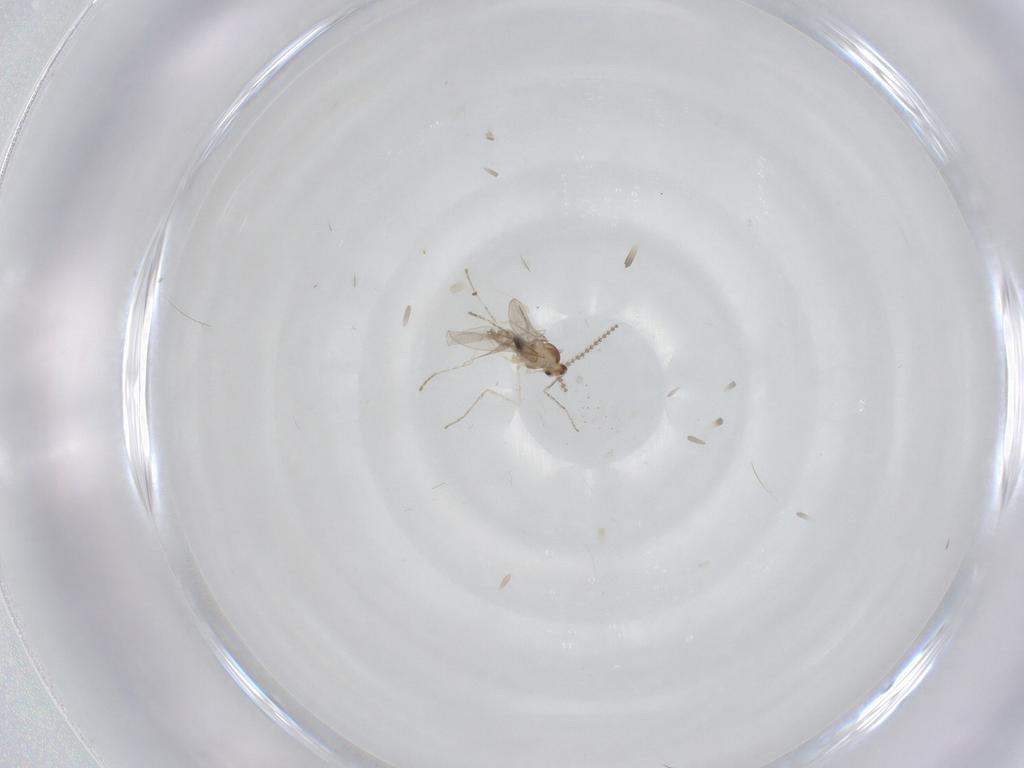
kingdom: Animalia
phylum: Arthropoda
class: Insecta
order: Diptera
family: Cecidomyiidae
